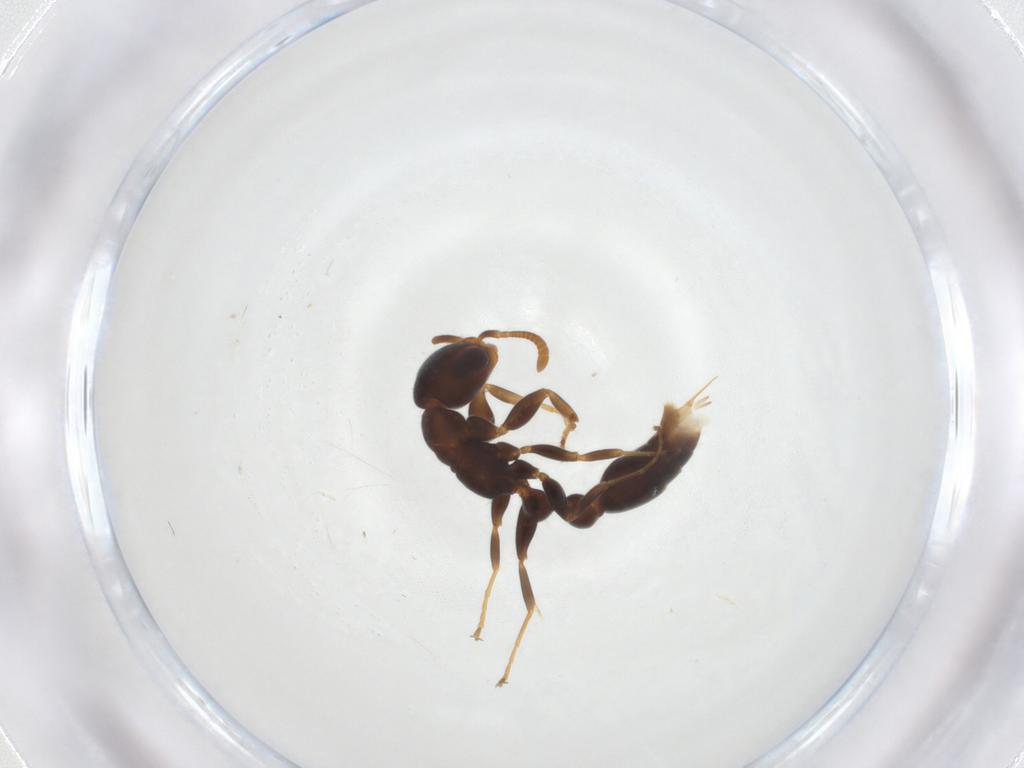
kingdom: Animalia
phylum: Arthropoda
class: Insecta
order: Hymenoptera
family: Formicidae
